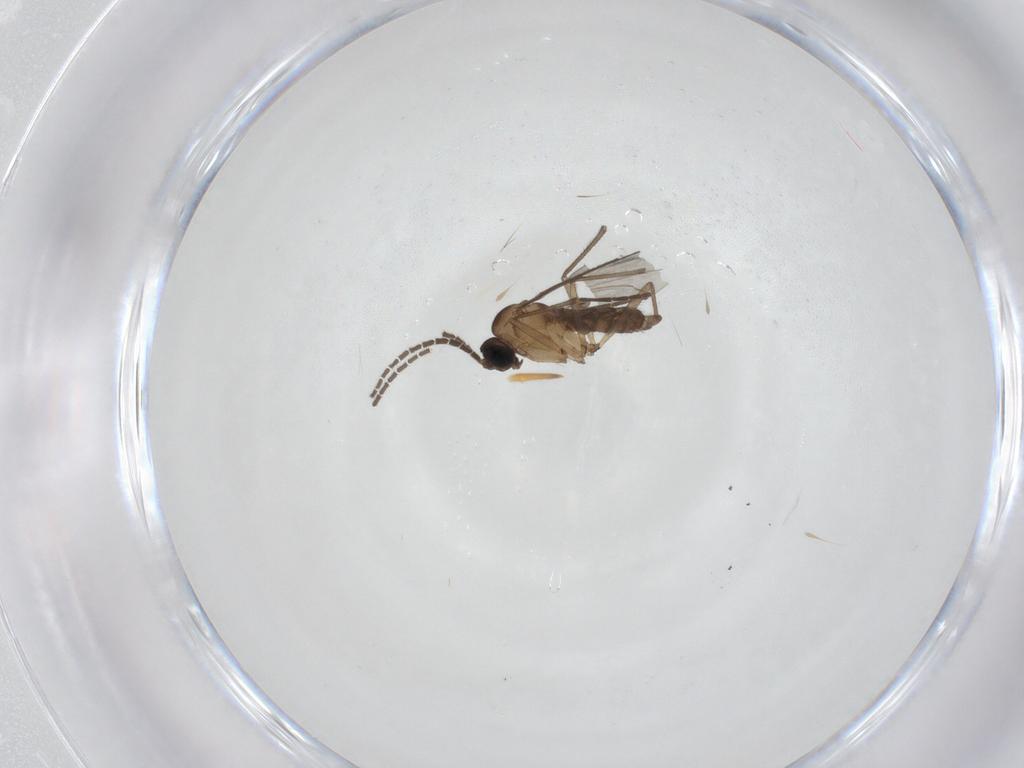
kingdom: Animalia
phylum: Arthropoda
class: Insecta
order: Diptera
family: Sciaridae
